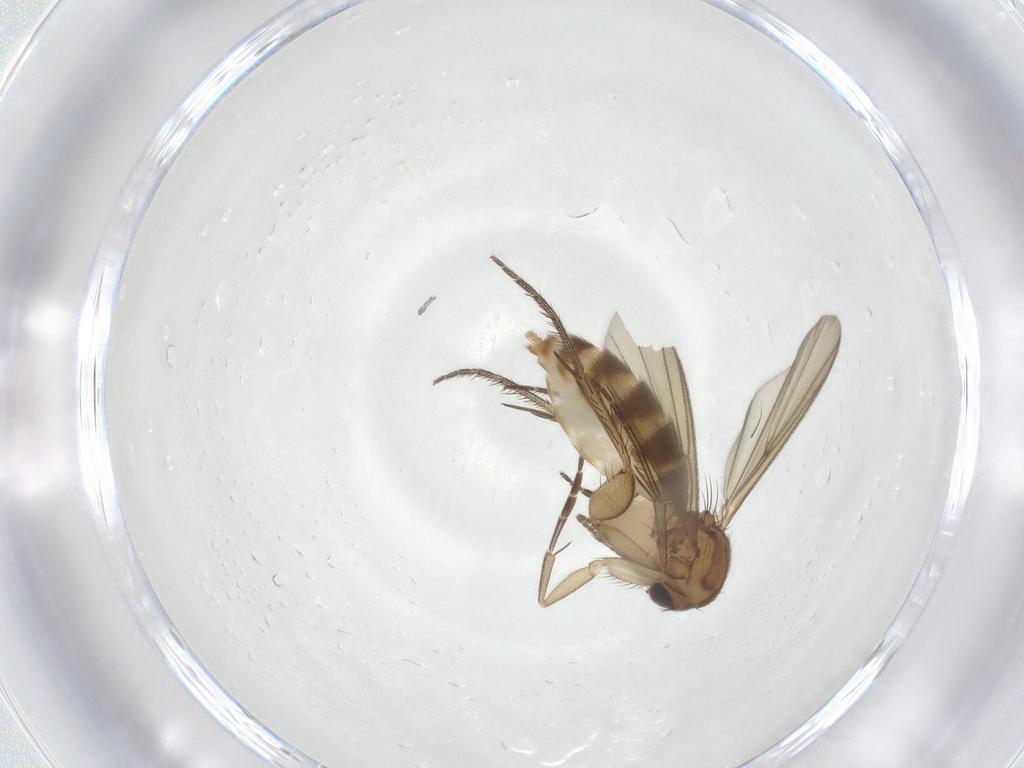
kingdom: Animalia
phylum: Arthropoda
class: Insecta
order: Diptera
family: Mycetophilidae
